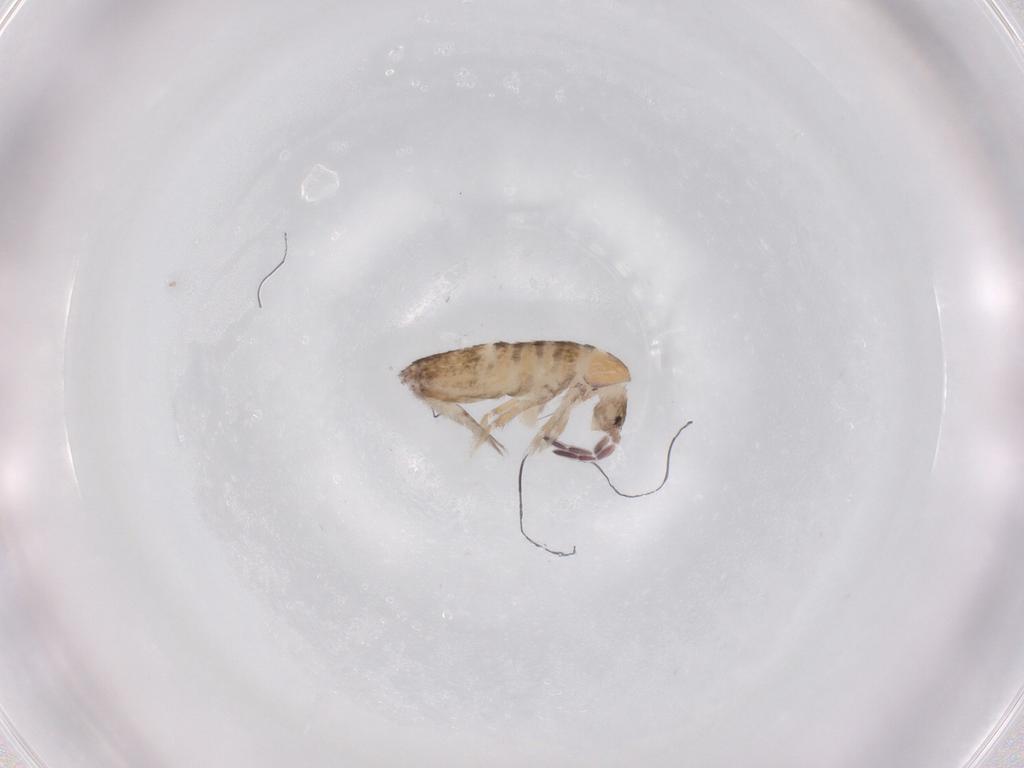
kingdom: Animalia
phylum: Arthropoda
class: Collembola
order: Entomobryomorpha
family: Entomobryidae
